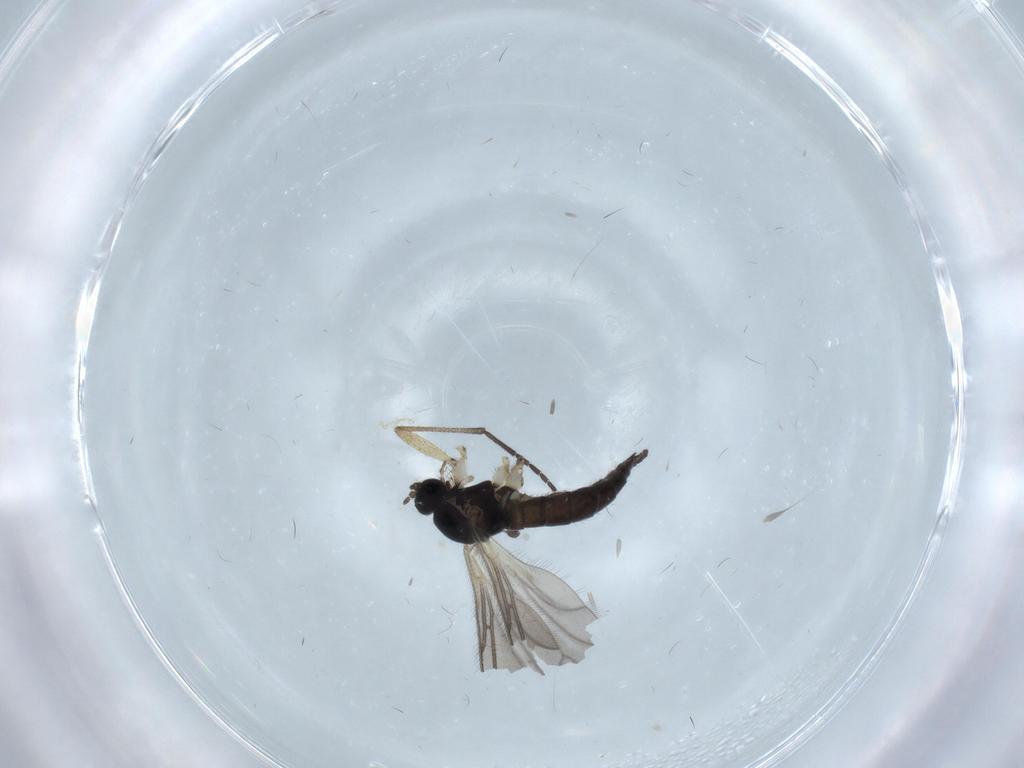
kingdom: Animalia
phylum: Arthropoda
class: Insecta
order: Diptera
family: Sciaridae
